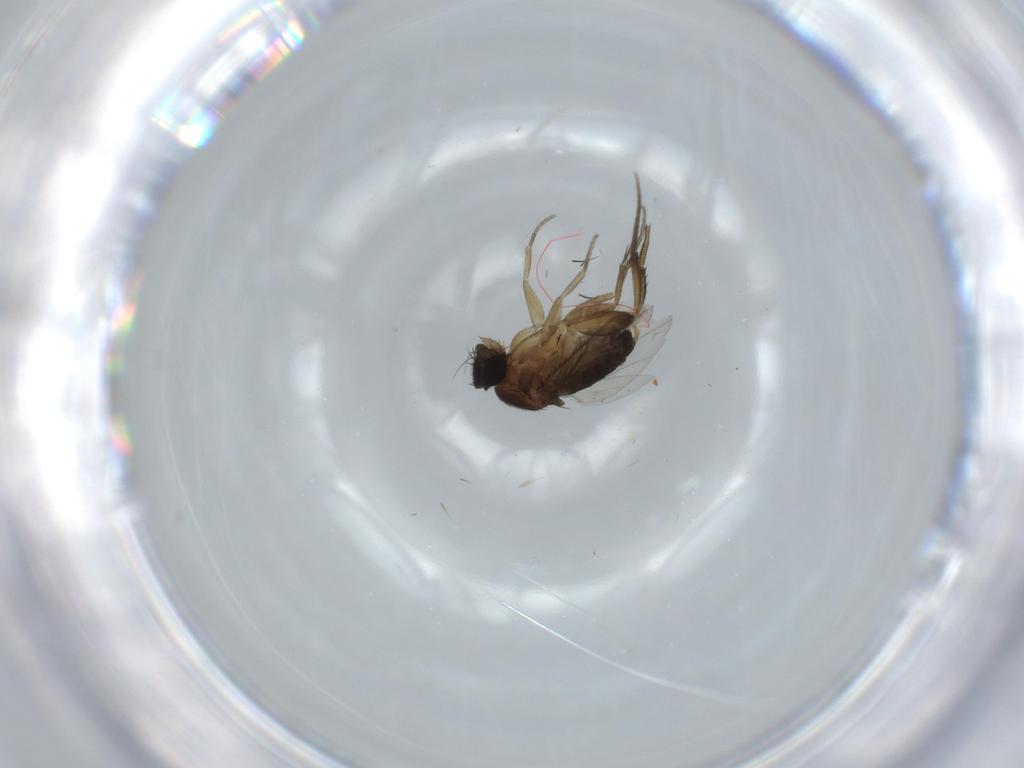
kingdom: Animalia
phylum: Arthropoda
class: Insecta
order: Diptera
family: Phoridae
